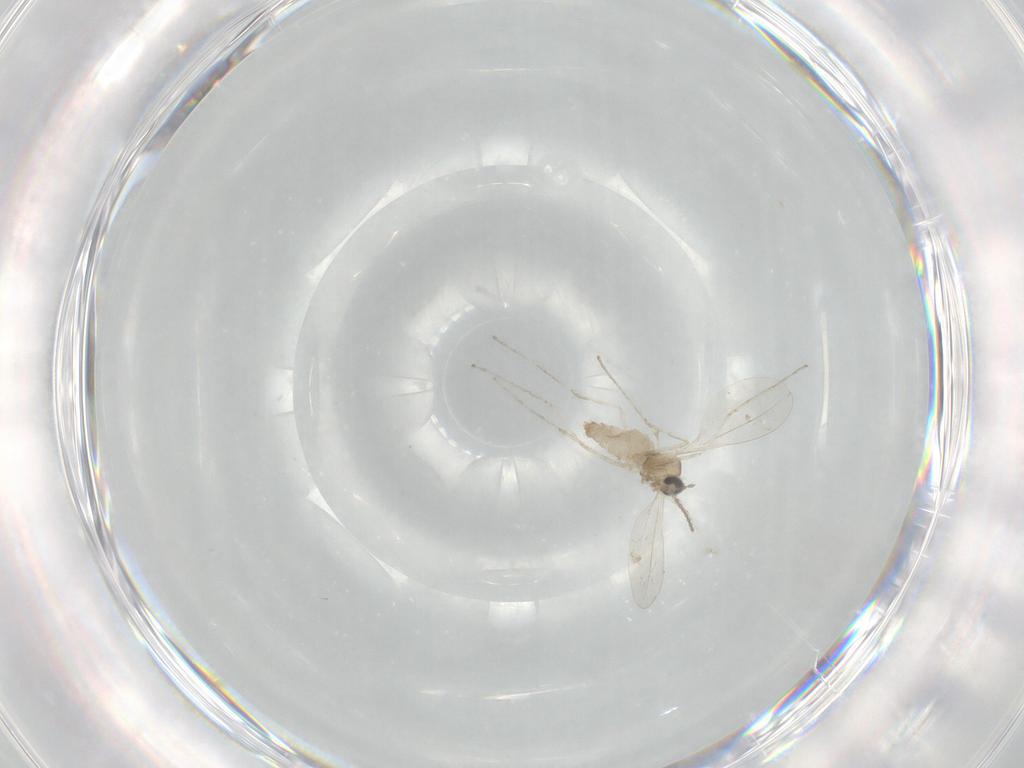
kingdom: Animalia
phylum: Arthropoda
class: Insecta
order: Diptera
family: Cecidomyiidae
